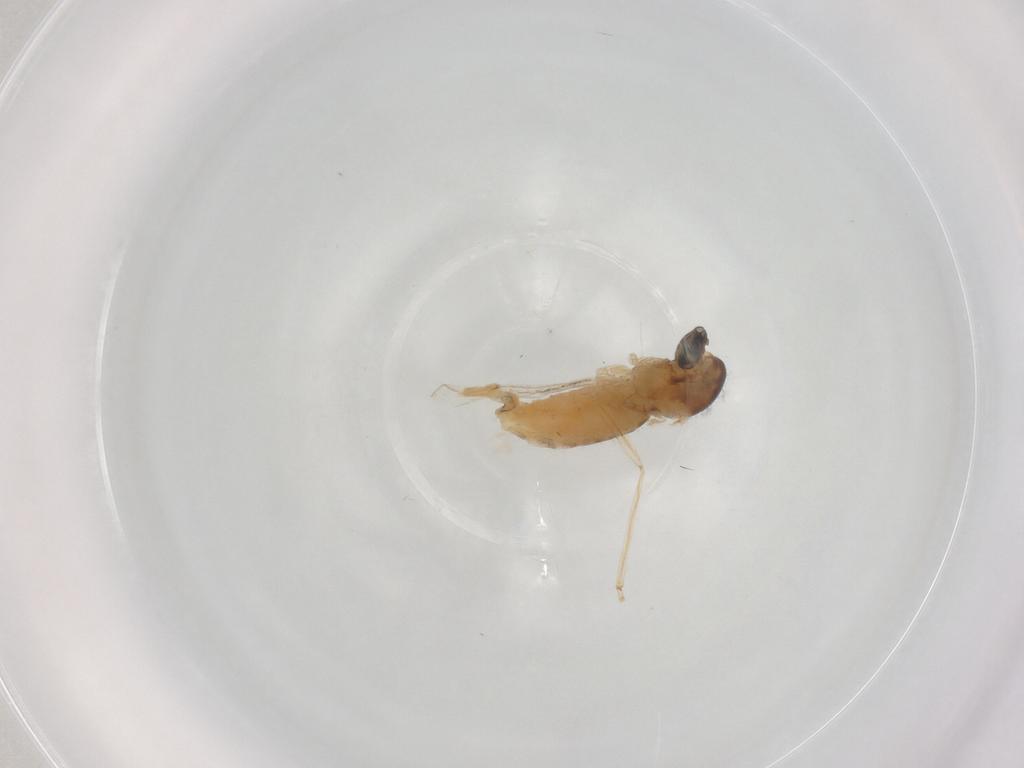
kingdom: Animalia
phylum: Arthropoda
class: Insecta
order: Diptera
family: Cecidomyiidae
